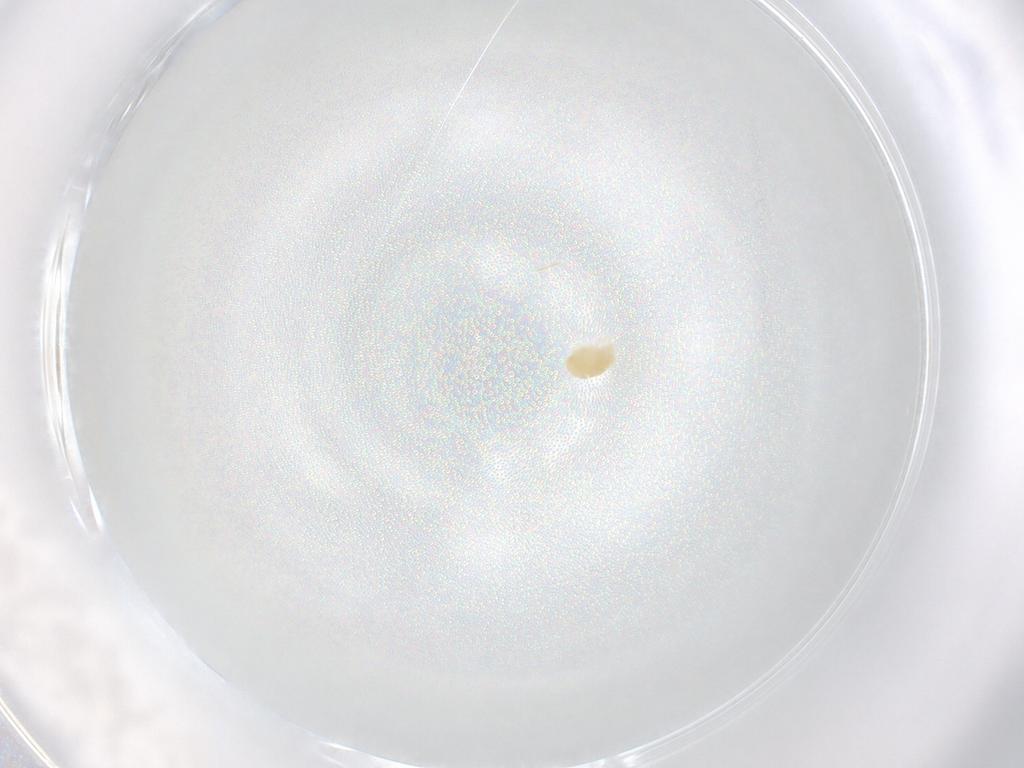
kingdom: Animalia
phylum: Arthropoda
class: Arachnida
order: Trombidiformes
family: Eupodidae
